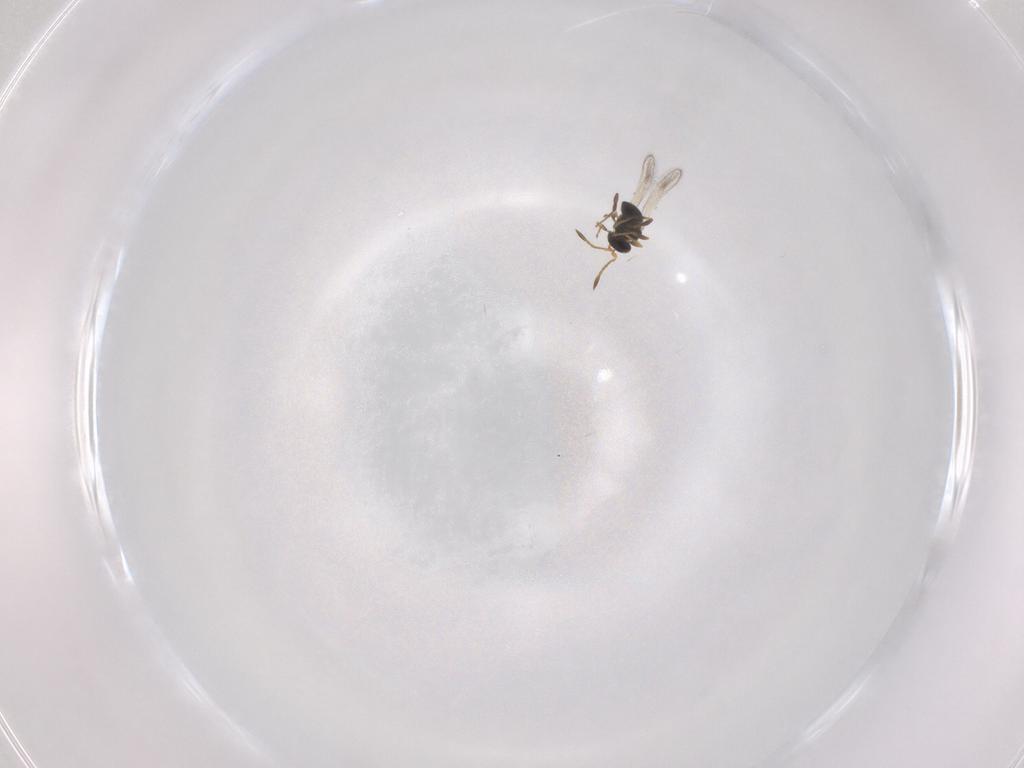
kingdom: Animalia
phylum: Arthropoda
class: Insecta
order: Hymenoptera
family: Platygastridae
